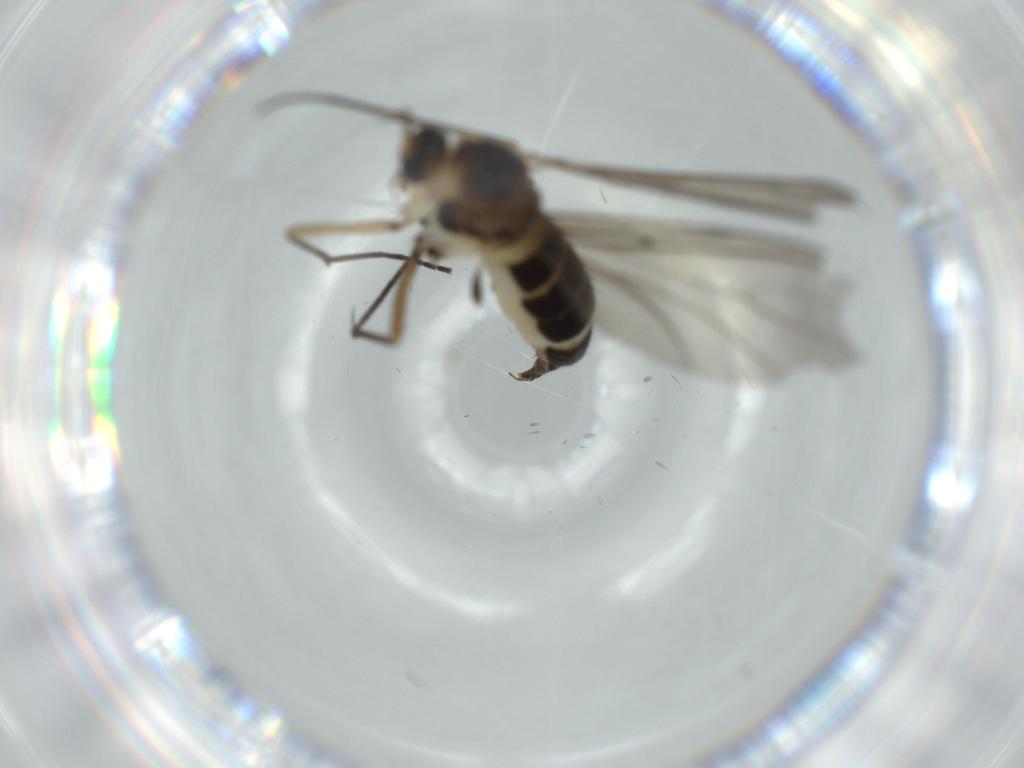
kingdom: Animalia
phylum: Arthropoda
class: Insecta
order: Diptera
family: Sciaridae
